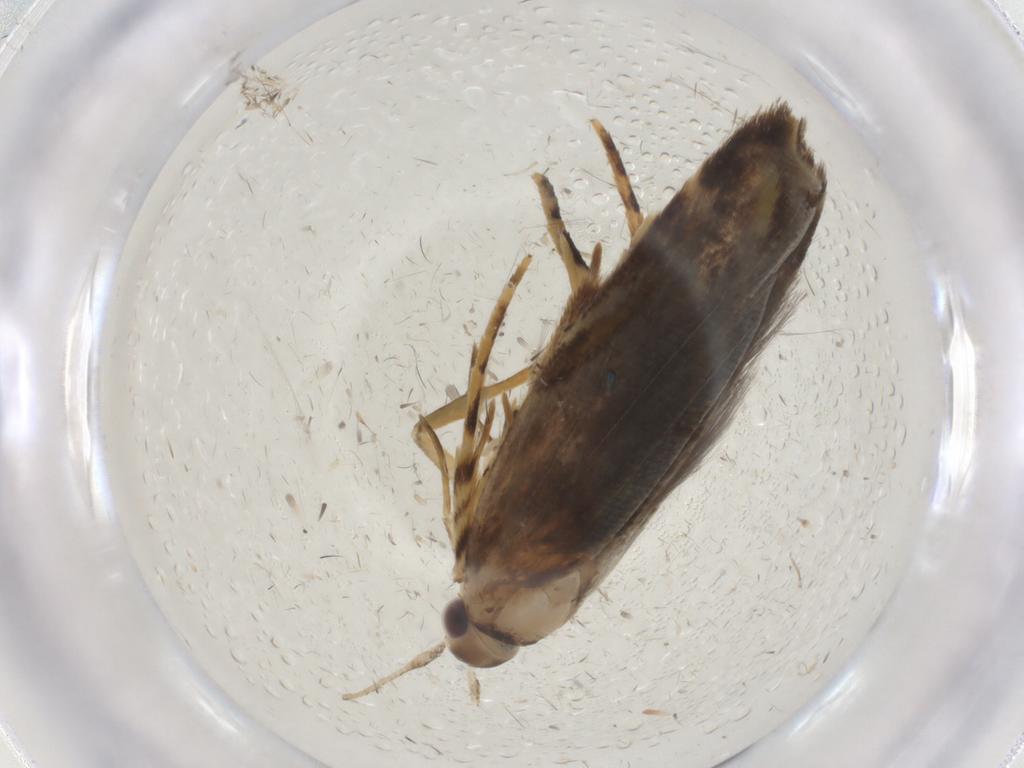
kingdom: Animalia
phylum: Arthropoda
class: Insecta
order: Lepidoptera
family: Gelechiidae
